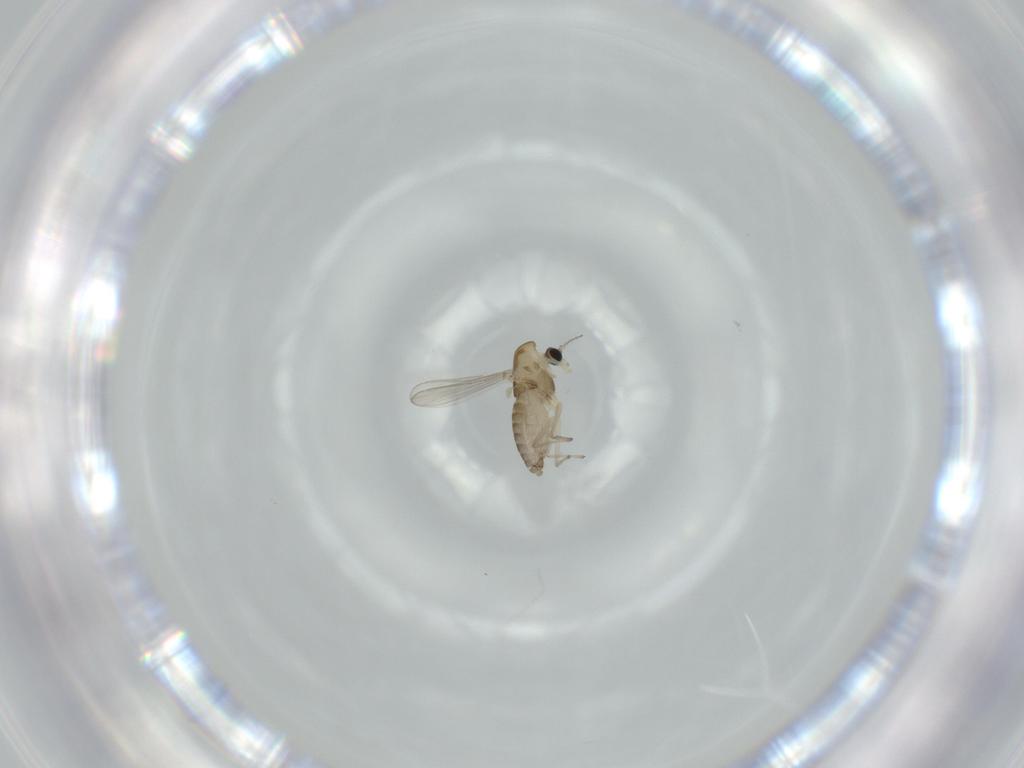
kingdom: Animalia
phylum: Arthropoda
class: Insecta
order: Diptera
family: Chironomidae
